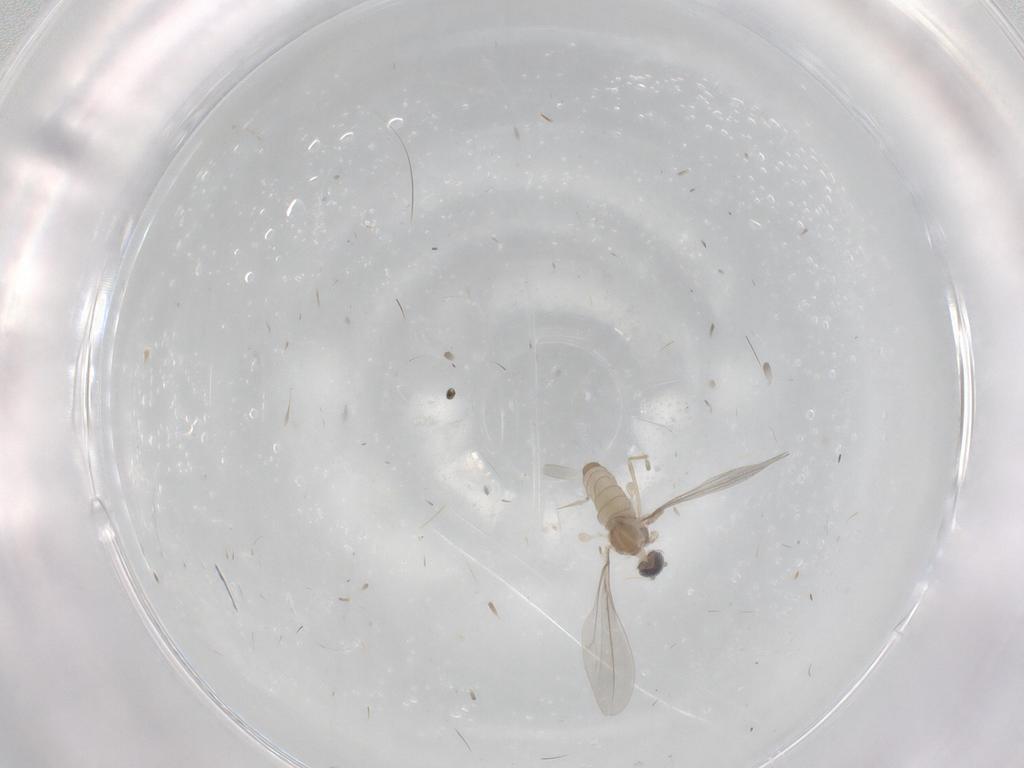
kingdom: Animalia
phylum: Arthropoda
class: Insecta
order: Diptera
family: Cecidomyiidae
